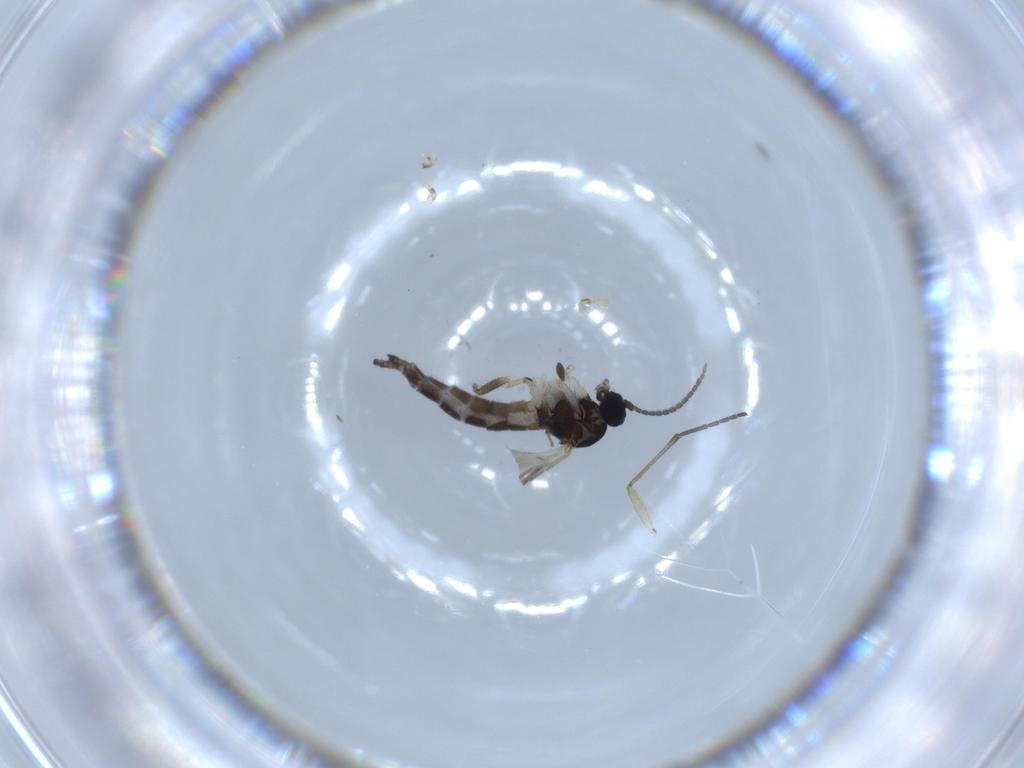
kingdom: Animalia
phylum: Arthropoda
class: Insecta
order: Diptera
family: Sciaridae
